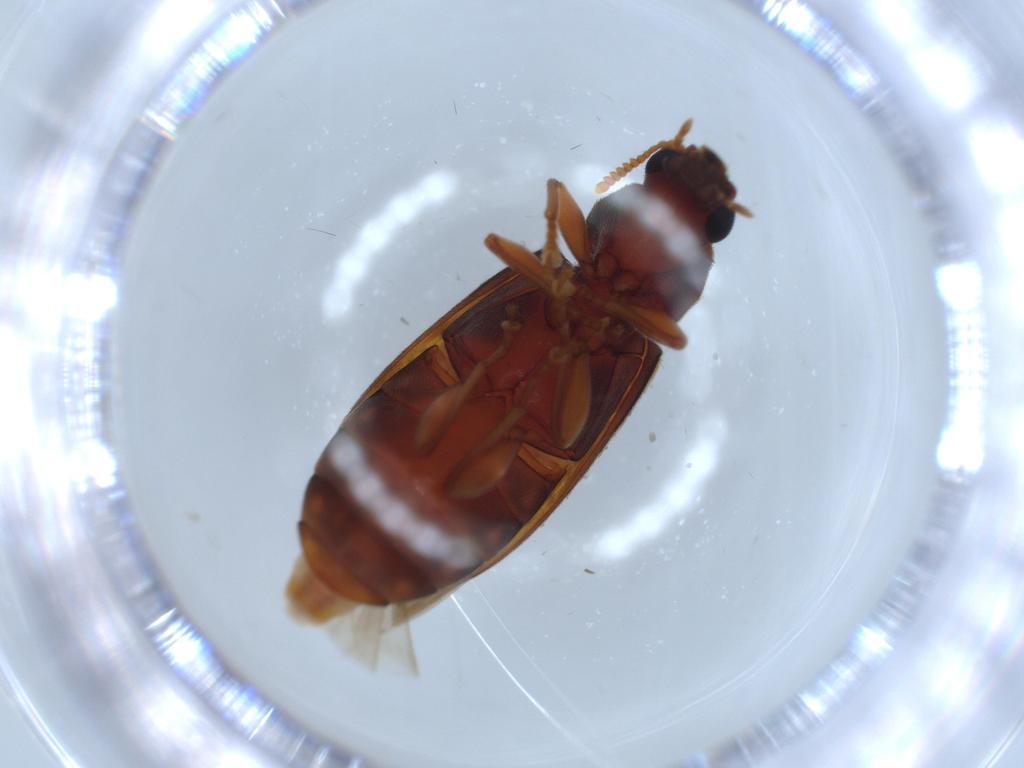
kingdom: Animalia
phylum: Arthropoda
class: Insecta
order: Coleoptera
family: Mycteridae
